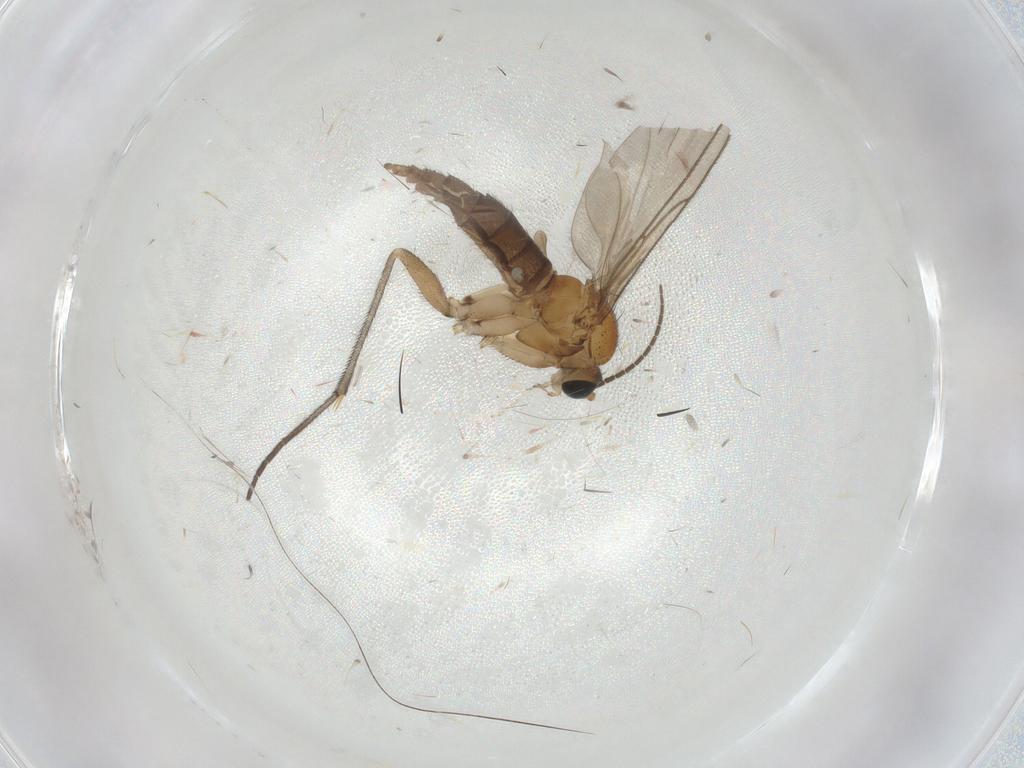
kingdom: Animalia
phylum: Arthropoda
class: Insecta
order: Diptera
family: Sciaridae
